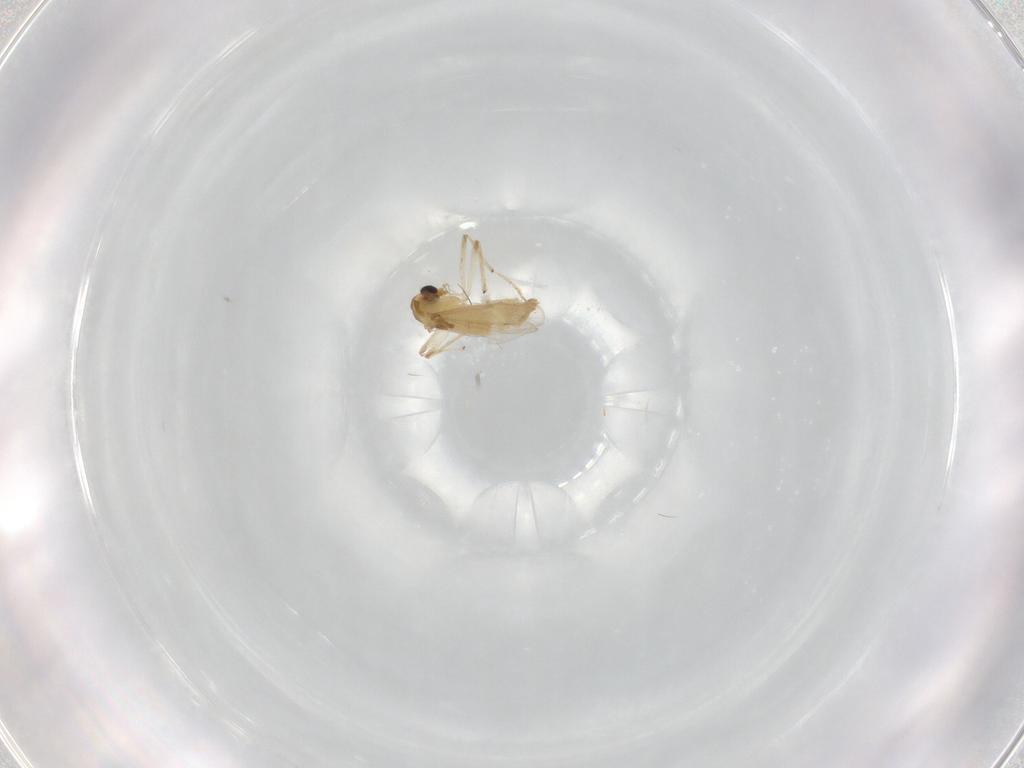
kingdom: Animalia
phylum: Arthropoda
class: Insecta
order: Diptera
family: Chironomidae
